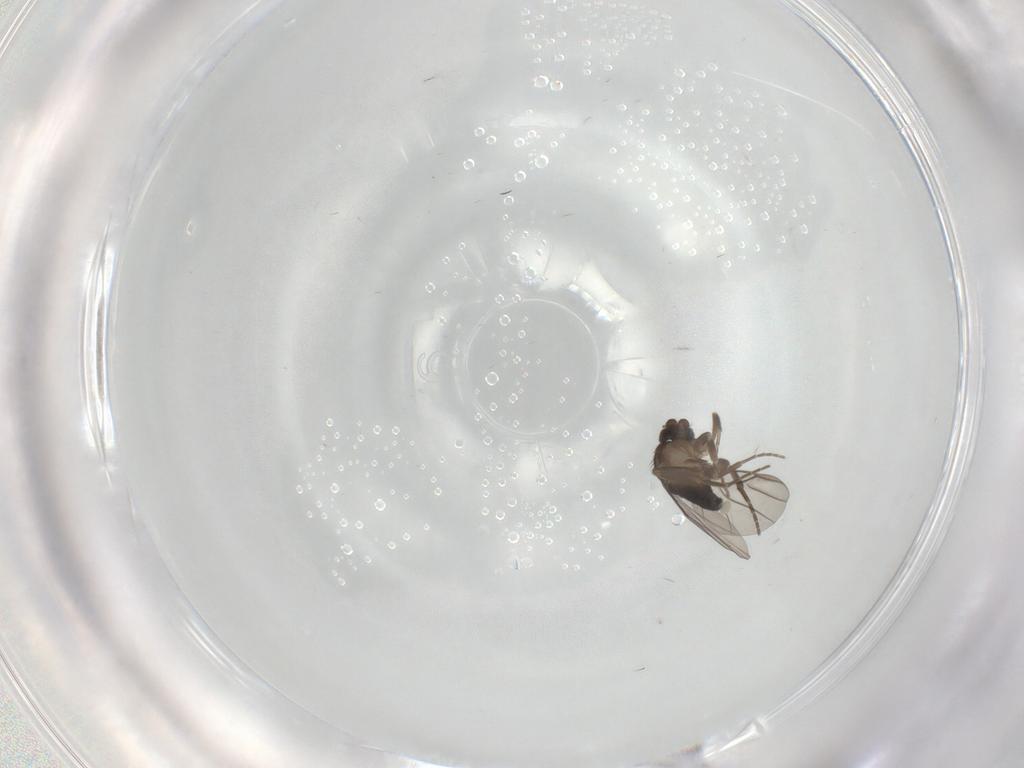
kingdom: Animalia
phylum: Arthropoda
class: Insecta
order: Diptera
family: Phoridae
